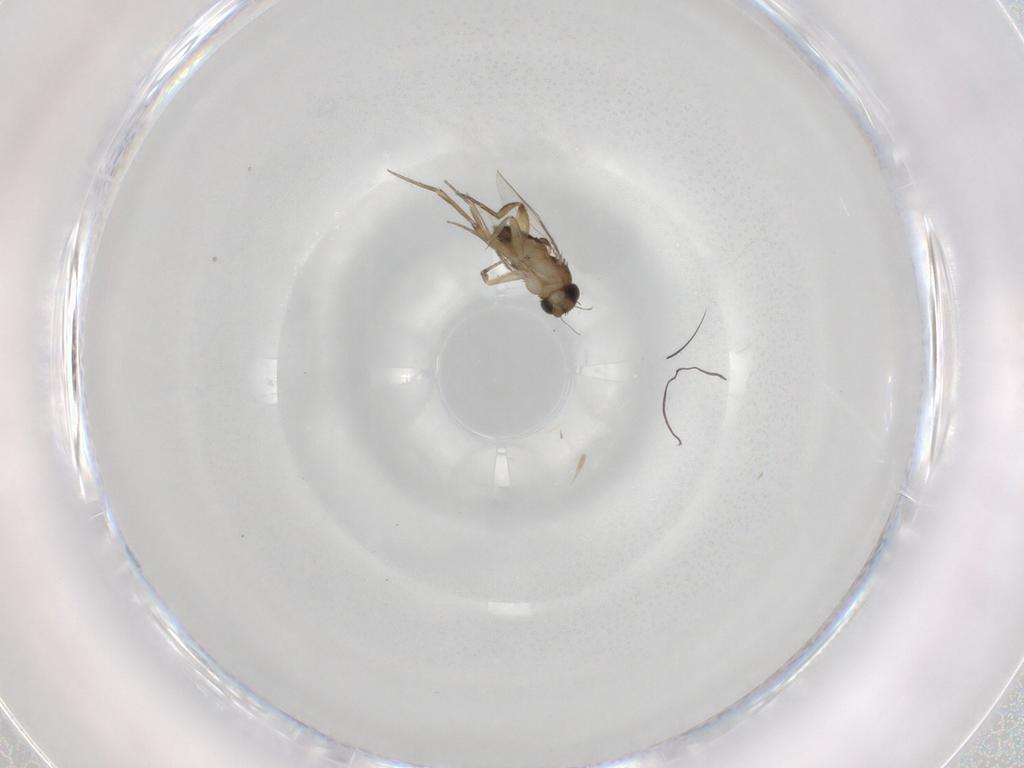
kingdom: Animalia
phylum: Arthropoda
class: Insecta
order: Diptera
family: Phoridae
